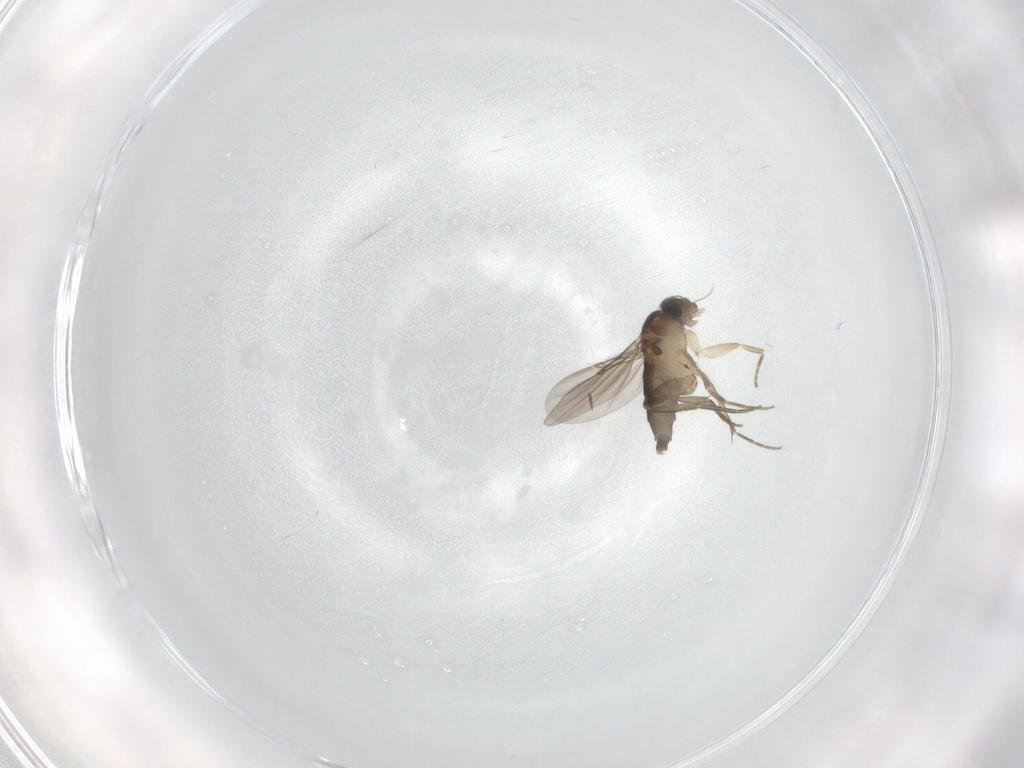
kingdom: Animalia
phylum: Arthropoda
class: Insecta
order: Diptera
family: Phoridae
